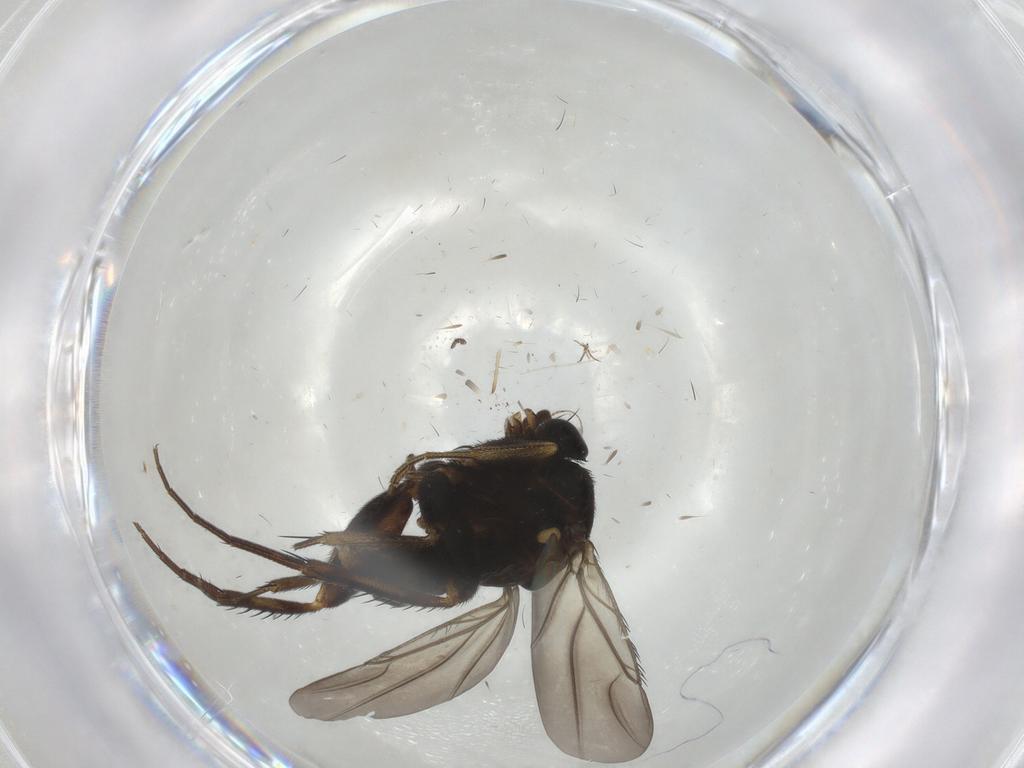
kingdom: Animalia
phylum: Arthropoda
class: Insecta
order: Diptera
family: Phoridae
